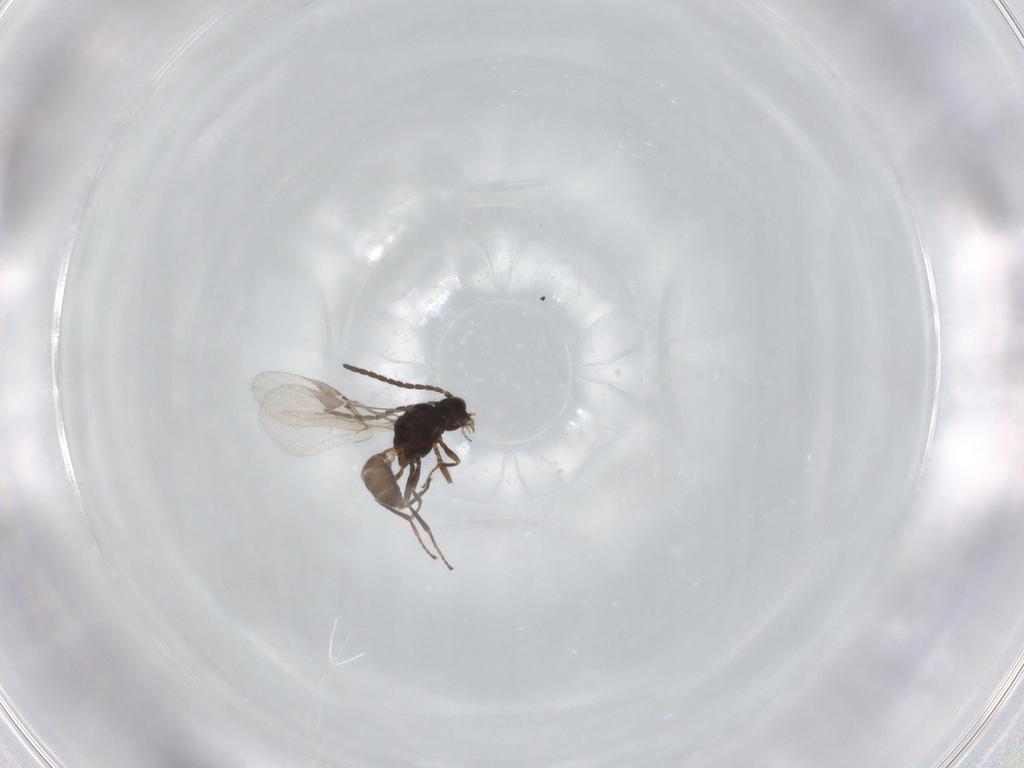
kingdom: Animalia
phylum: Arthropoda
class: Insecta
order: Hymenoptera
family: Braconidae
